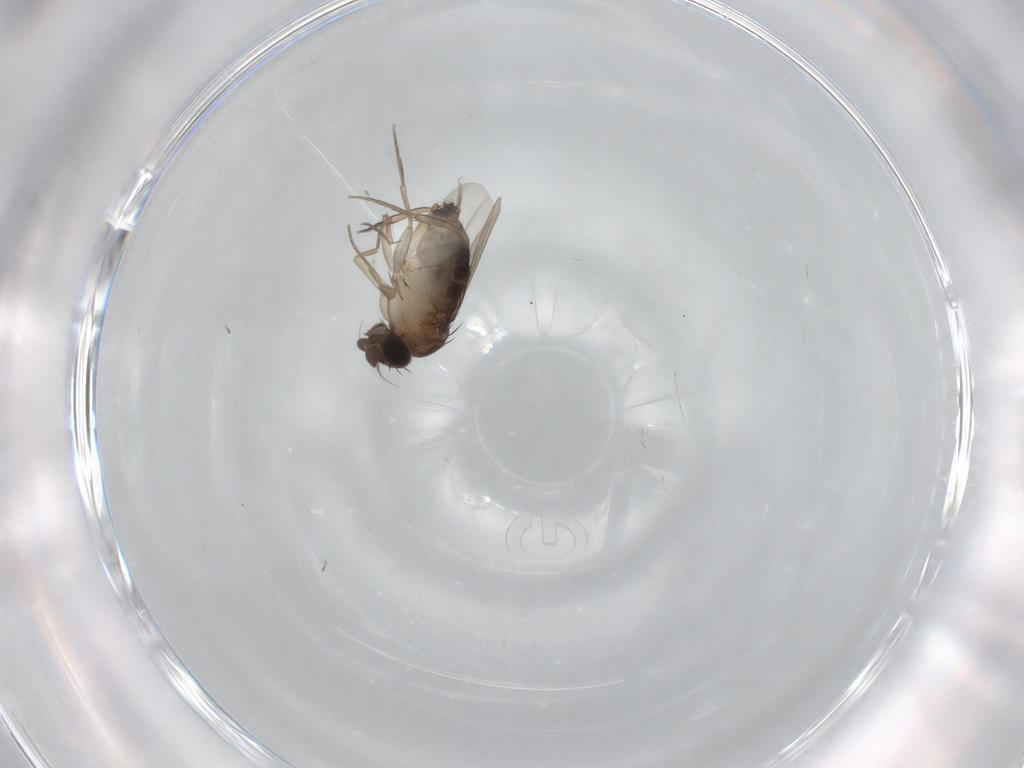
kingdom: Animalia
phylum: Arthropoda
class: Insecta
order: Diptera
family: Phoridae
